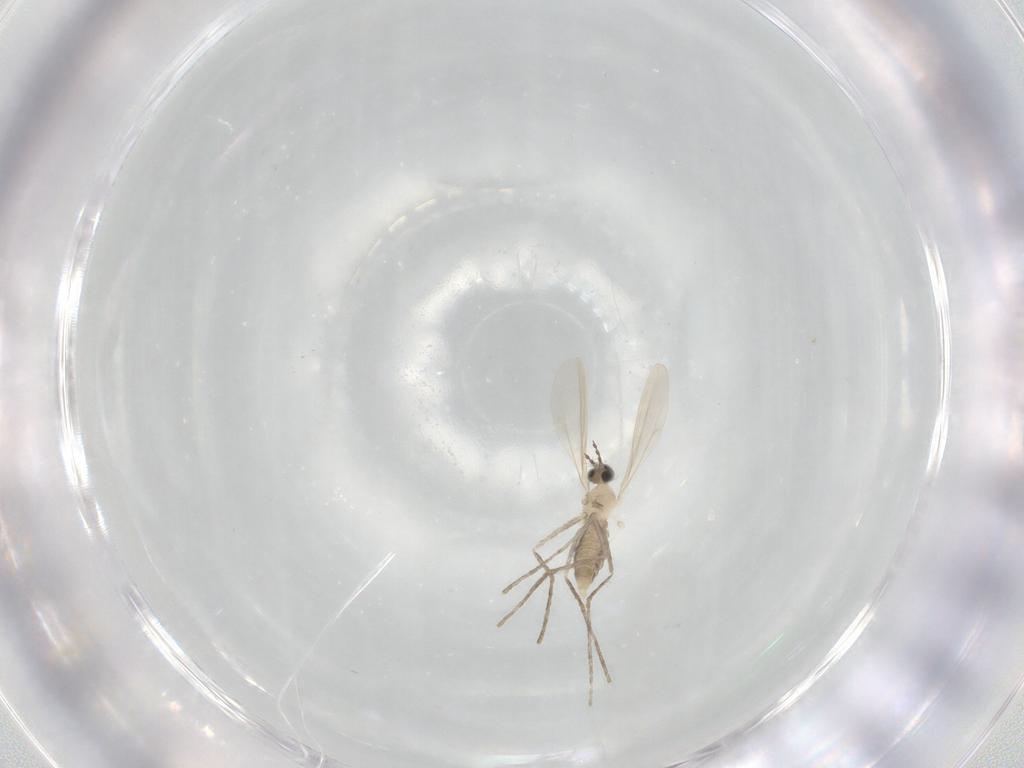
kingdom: Animalia
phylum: Arthropoda
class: Insecta
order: Diptera
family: Cecidomyiidae
